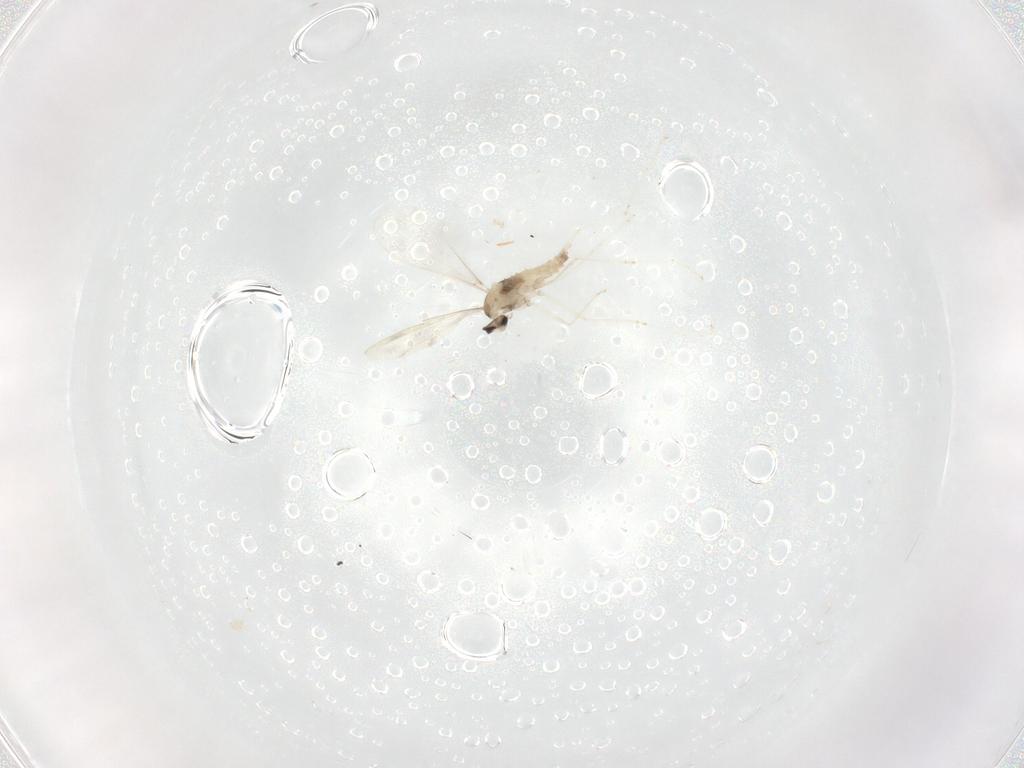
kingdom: Animalia
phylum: Arthropoda
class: Insecta
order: Diptera
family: Cecidomyiidae
